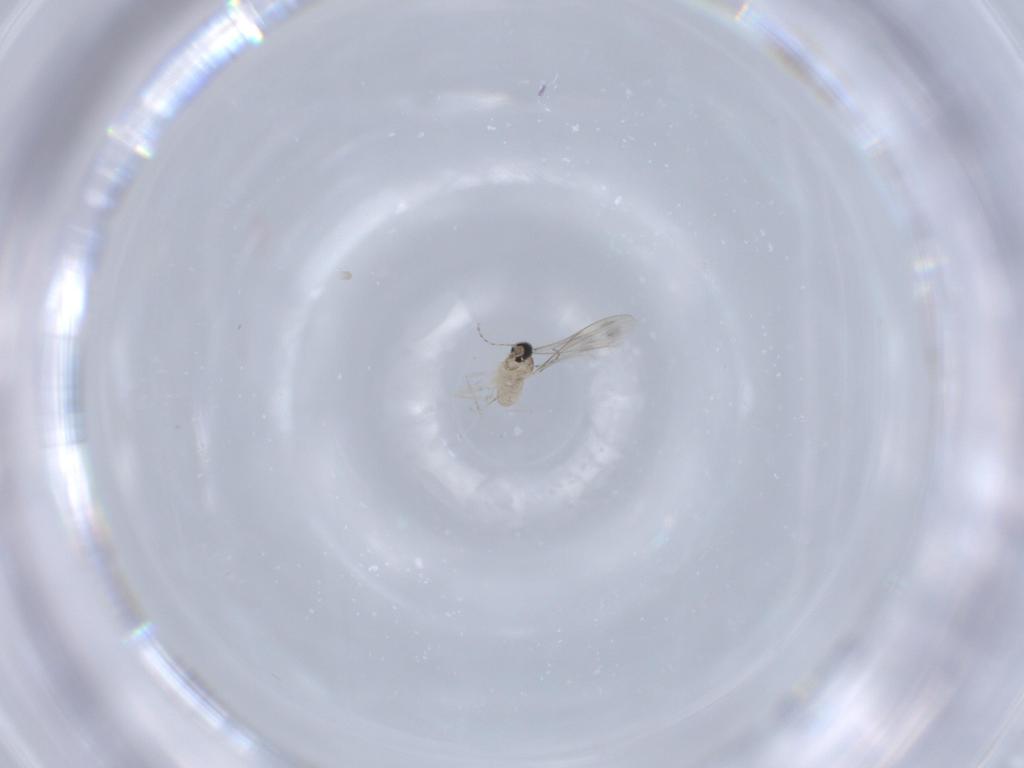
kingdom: Animalia
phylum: Arthropoda
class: Insecta
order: Diptera
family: Cecidomyiidae
